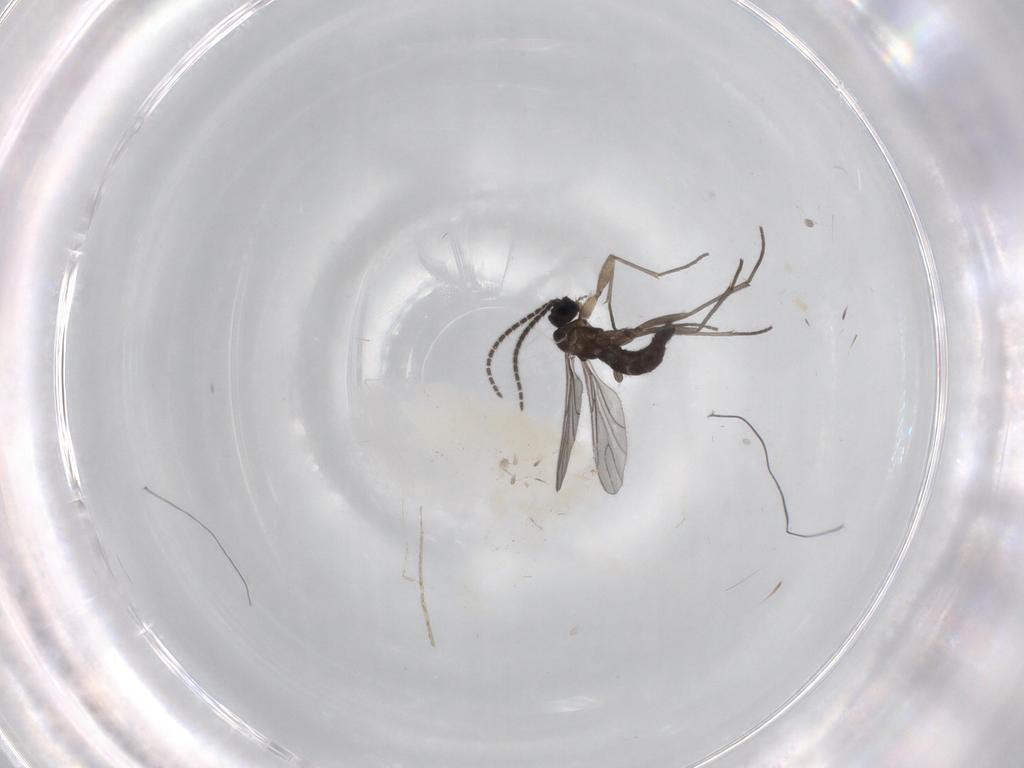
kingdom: Animalia
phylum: Arthropoda
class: Insecta
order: Diptera
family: Sciaridae
